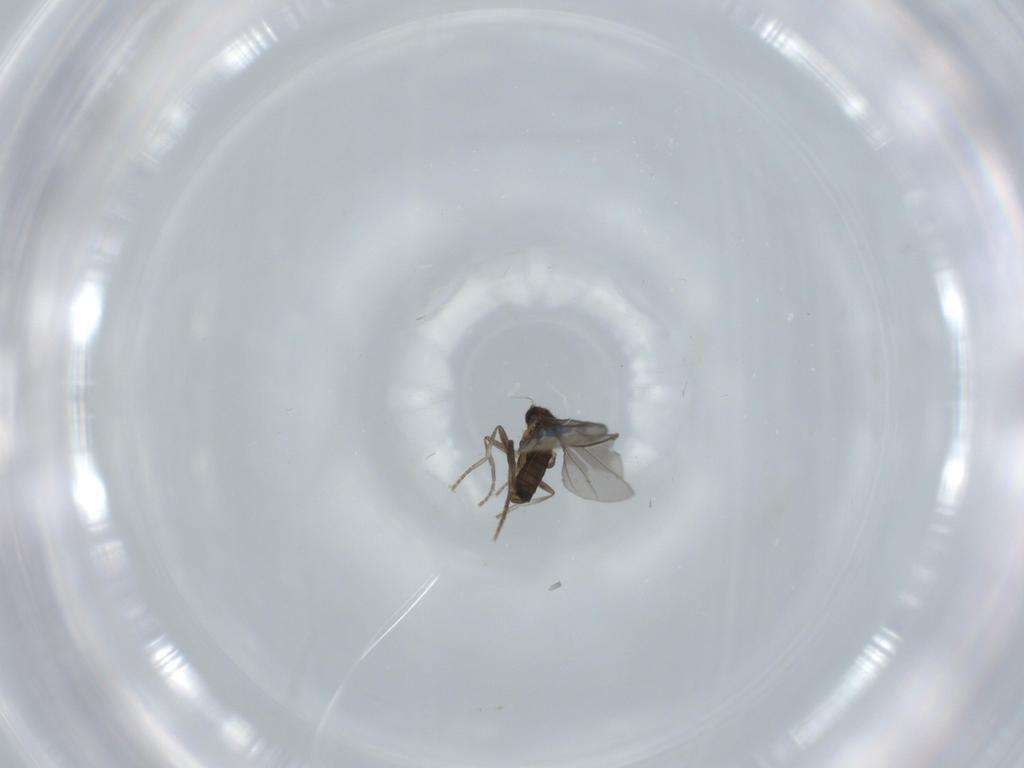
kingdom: Animalia
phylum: Arthropoda
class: Insecta
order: Diptera
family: Phoridae
